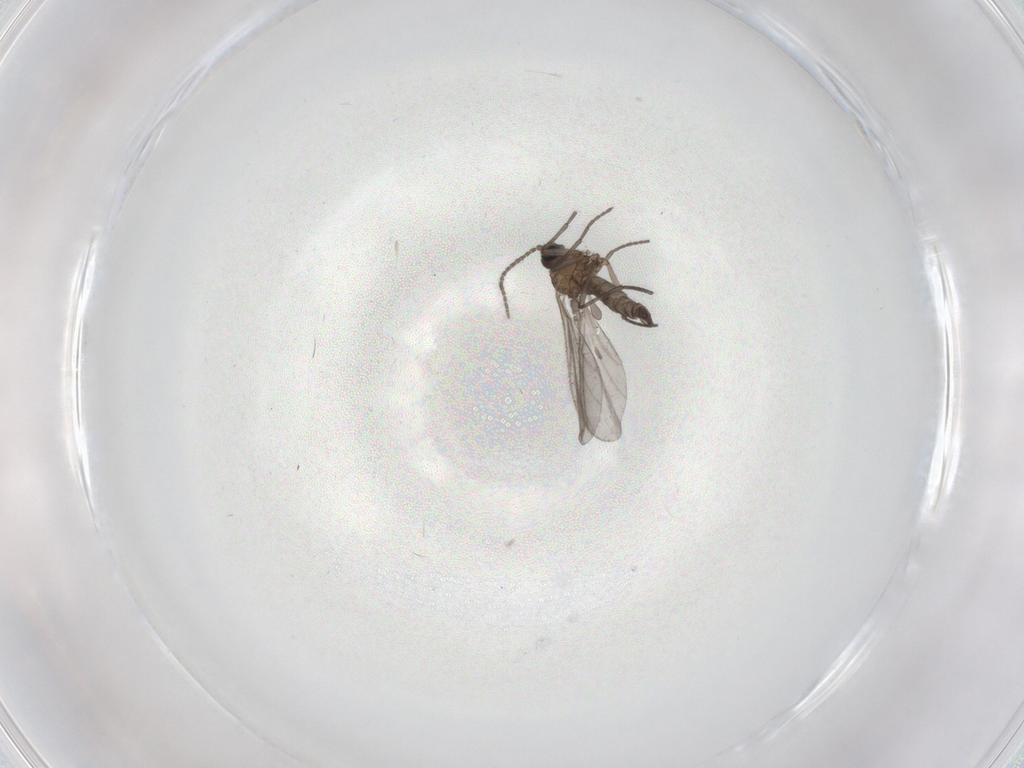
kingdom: Animalia
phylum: Arthropoda
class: Insecta
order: Diptera
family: Sciaridae
